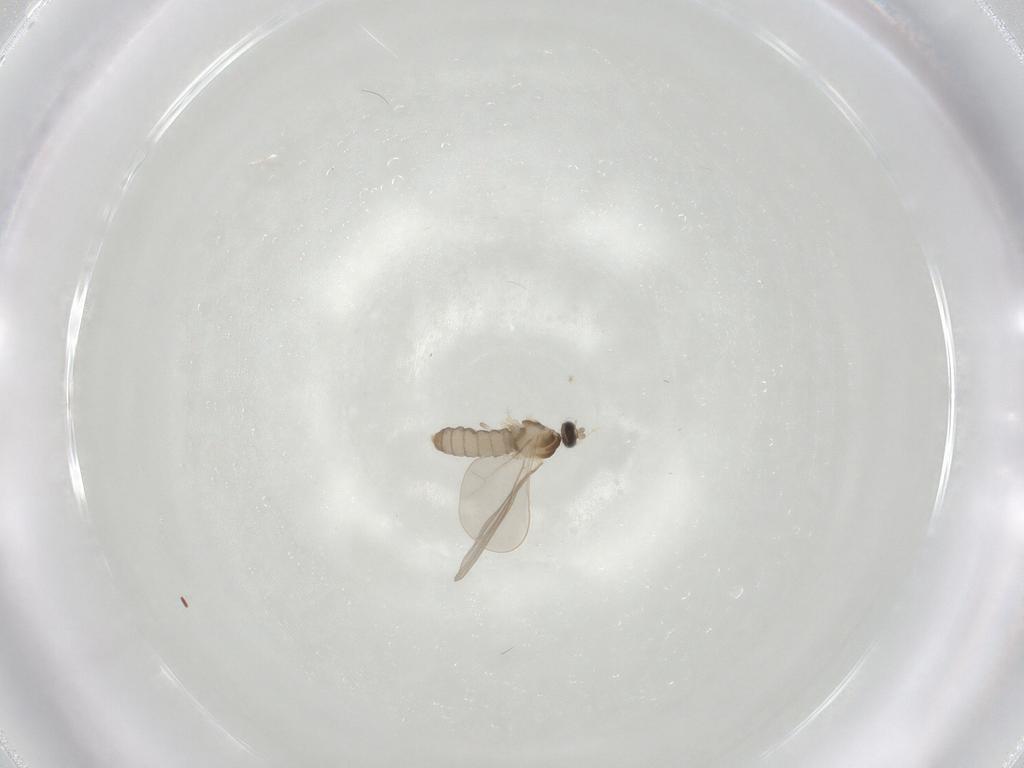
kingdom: Animalia
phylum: Arthropoda
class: Insecta
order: Diptera
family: Cecidomyiidae
